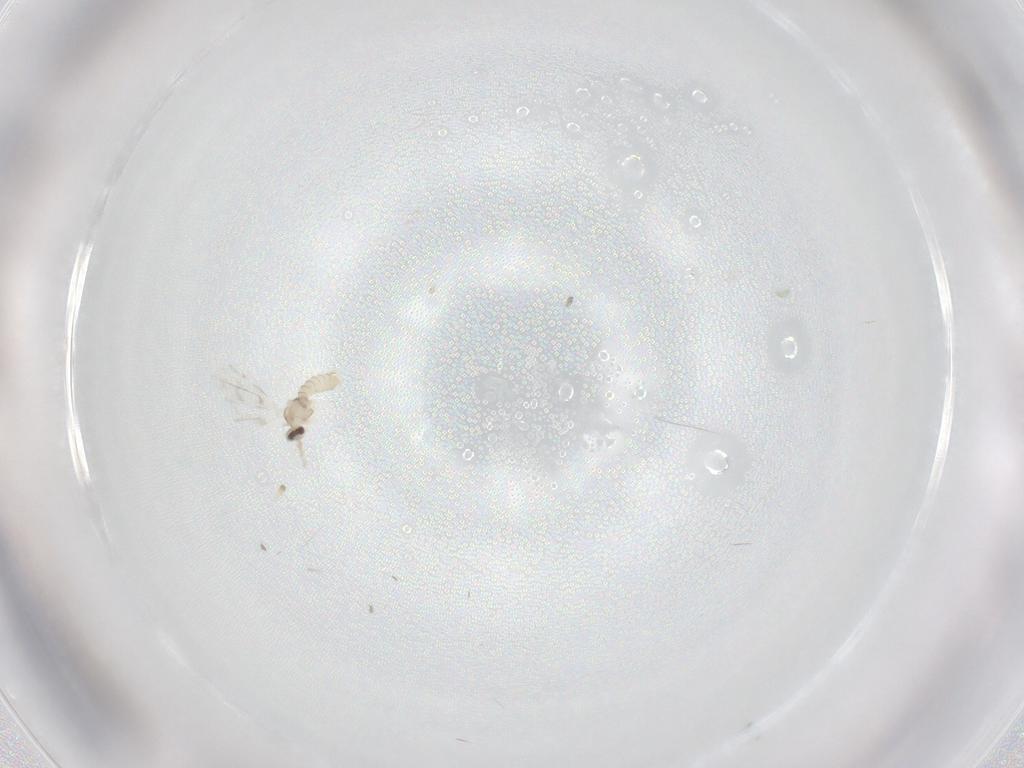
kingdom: Animalia
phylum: Arthropoda
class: Insecta
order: Diptera
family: Cecidomyiidae
